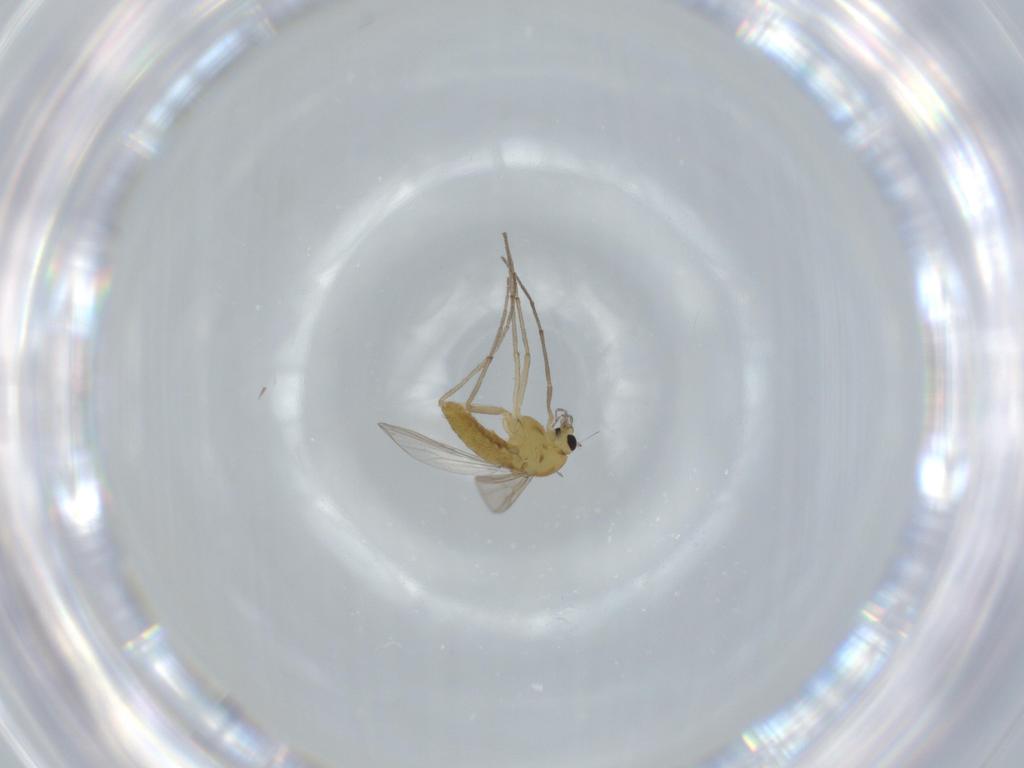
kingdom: Animalia
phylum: Arthropoda
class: Insecta
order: Diptera
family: Chironomidae
